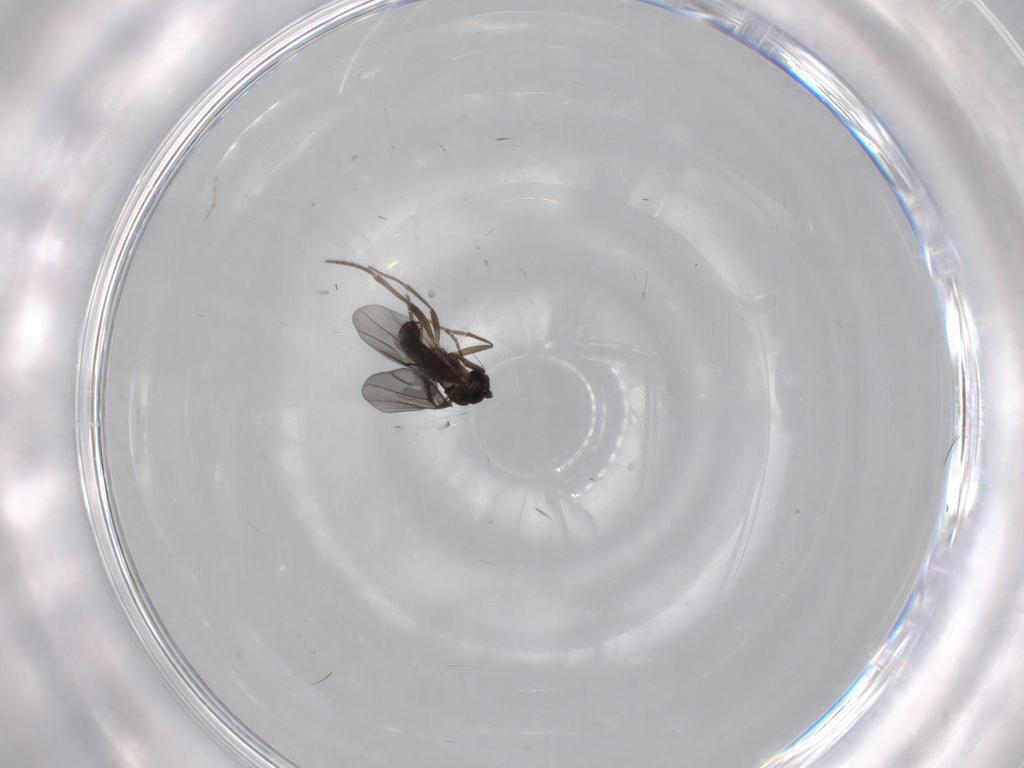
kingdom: Animalia
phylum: Arthropoda
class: Insecta
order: Diptera
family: Phoridae
